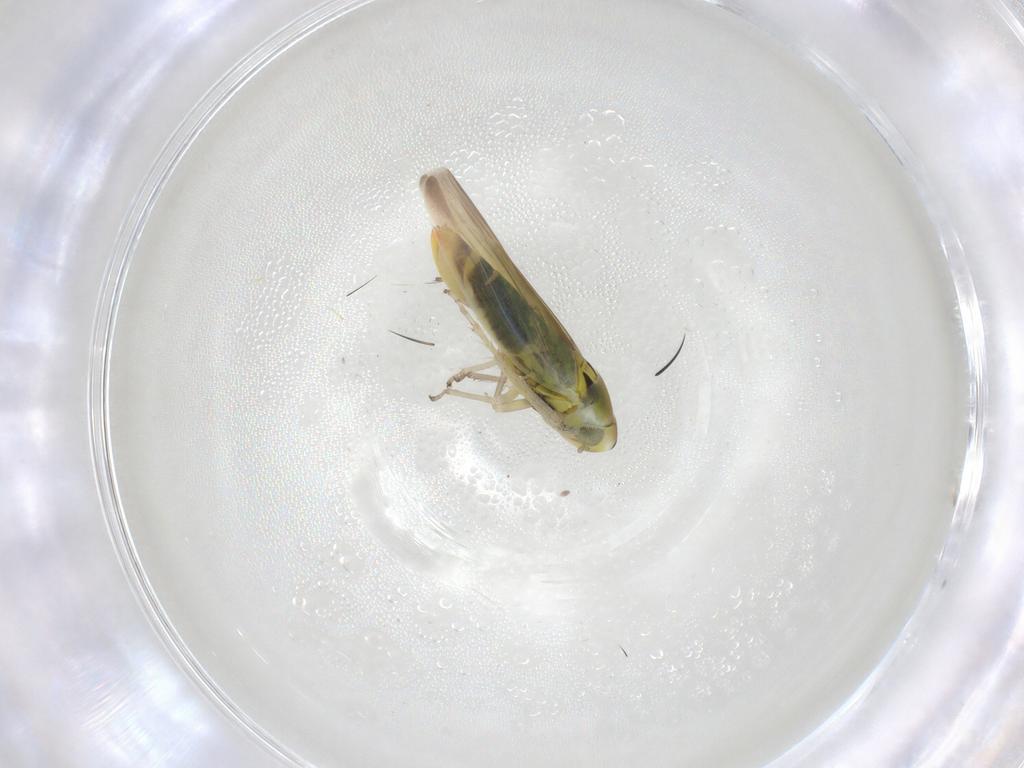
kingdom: Animalia
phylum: Arthropoda
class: Insecta
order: Hemiptera
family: Cicadellidae
